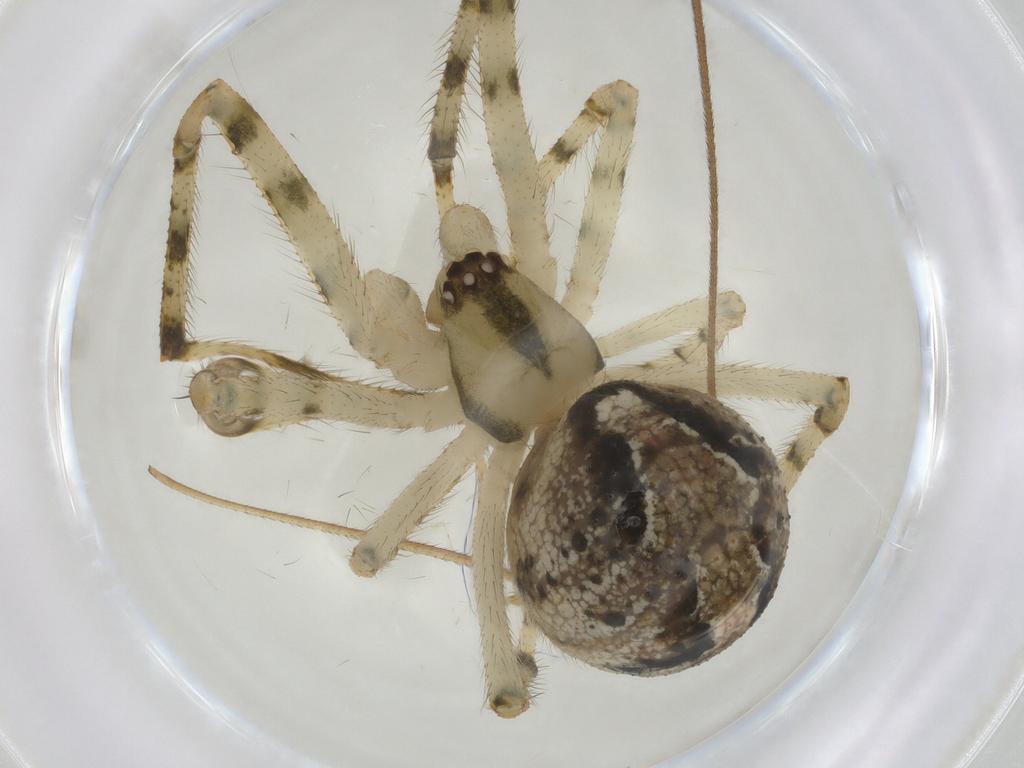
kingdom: Animalia
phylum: Arthropoda
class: Arachnida
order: Araneae
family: Theridiidae
